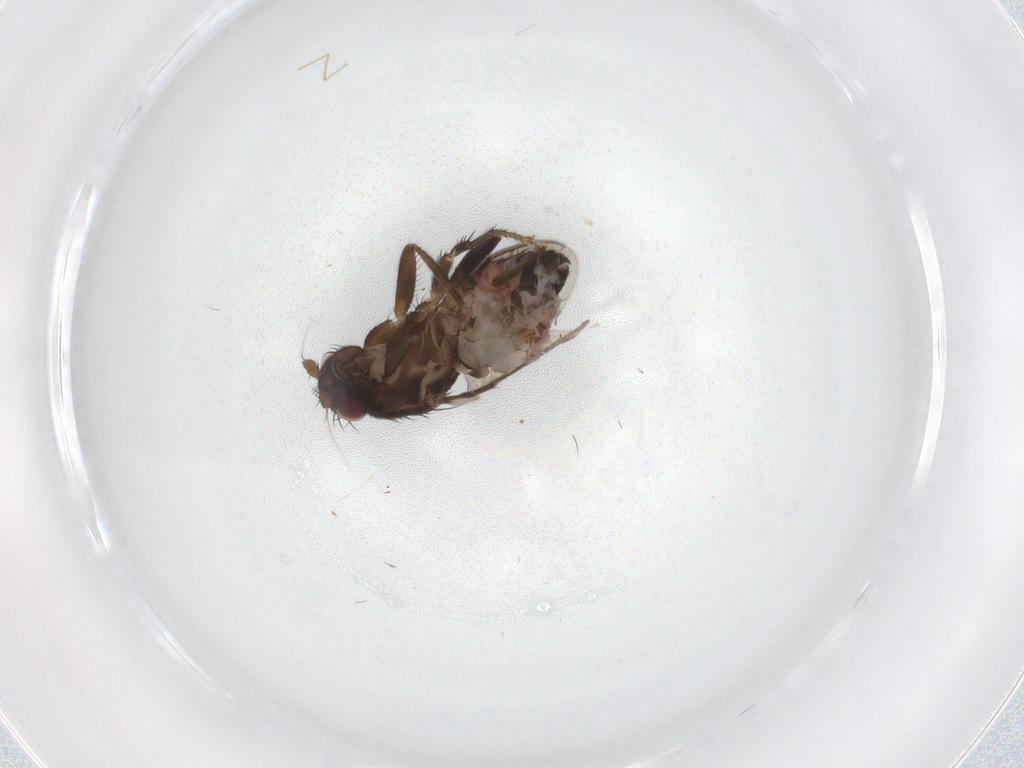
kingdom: Animalia
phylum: Arthropoda
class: Insecta
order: Diptera
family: Sphaeroceridae
